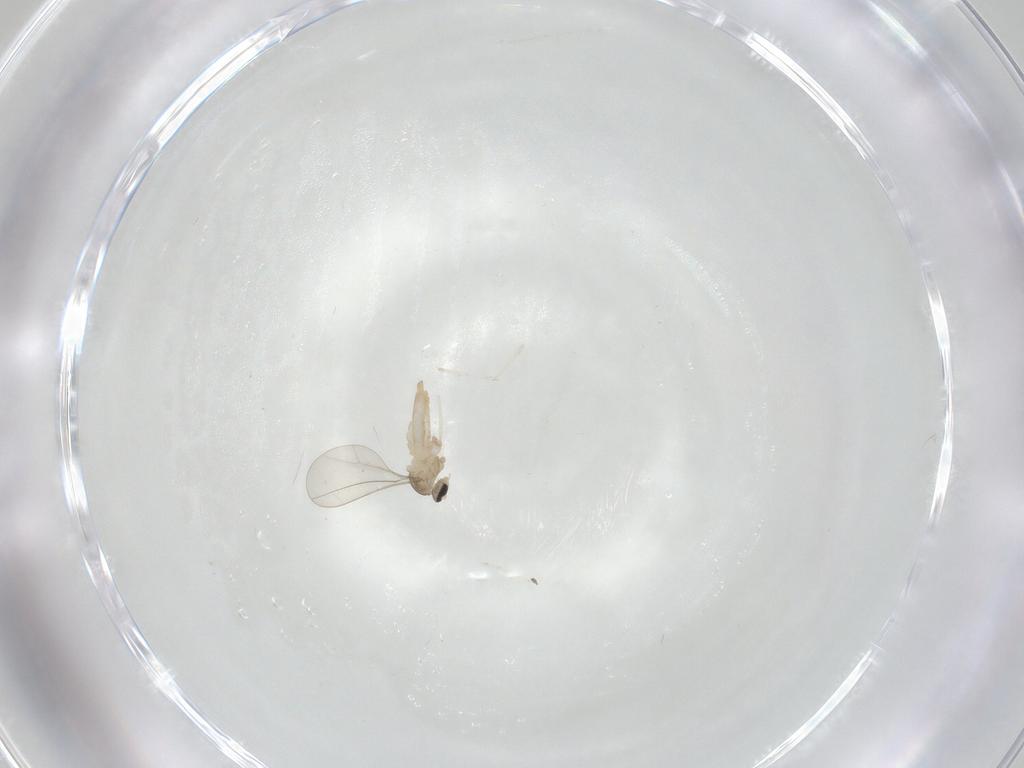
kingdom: Animalia
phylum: Arthropoda
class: Insecta
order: Diptera
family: Cecidomyiidae
